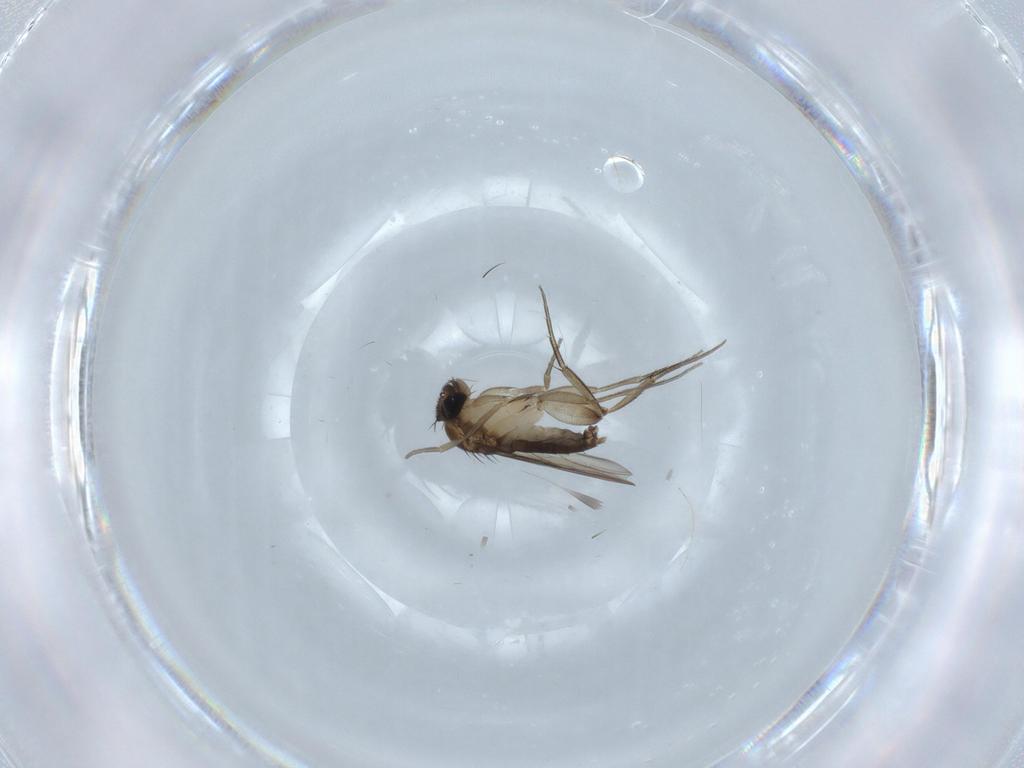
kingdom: Animalia
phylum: Arthropoda
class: Insecta
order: Diptera
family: Phoridae
